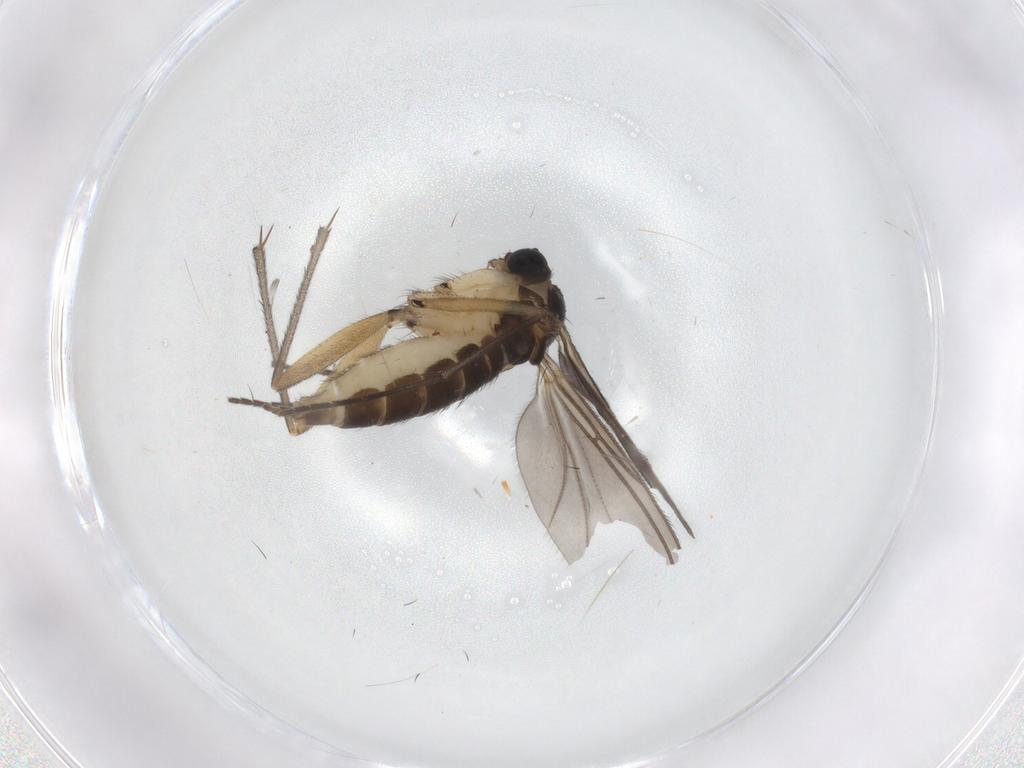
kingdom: Animalia
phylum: Arthropoda
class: Insecta
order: Diptera
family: Sciaridae
